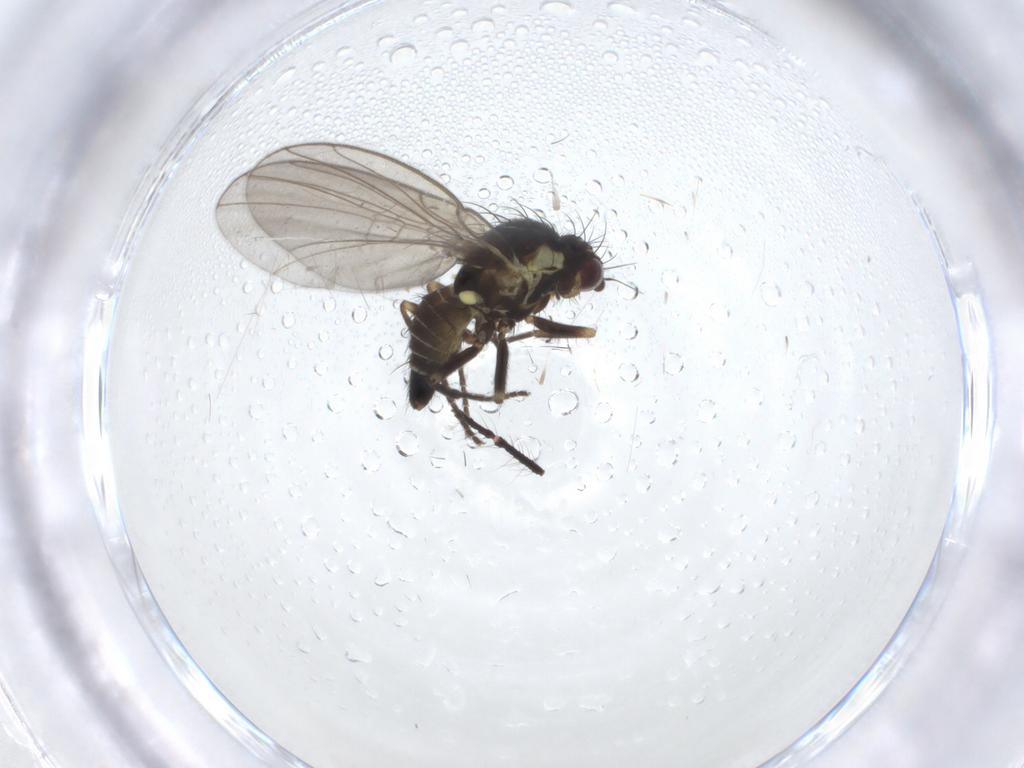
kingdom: Animalia
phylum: Arthropoda
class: Insecta
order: Diptera
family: Agromyzidae
